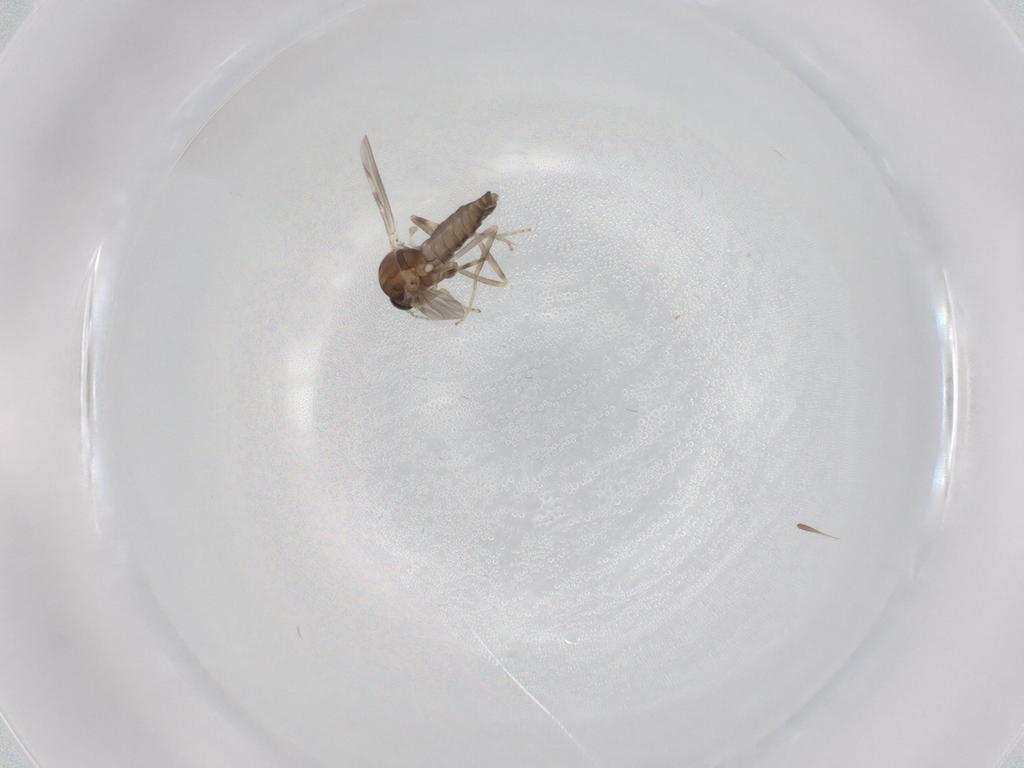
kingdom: Animalia
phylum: Arthropoda
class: Insecta
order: Diptera
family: Ceratopogonidae
